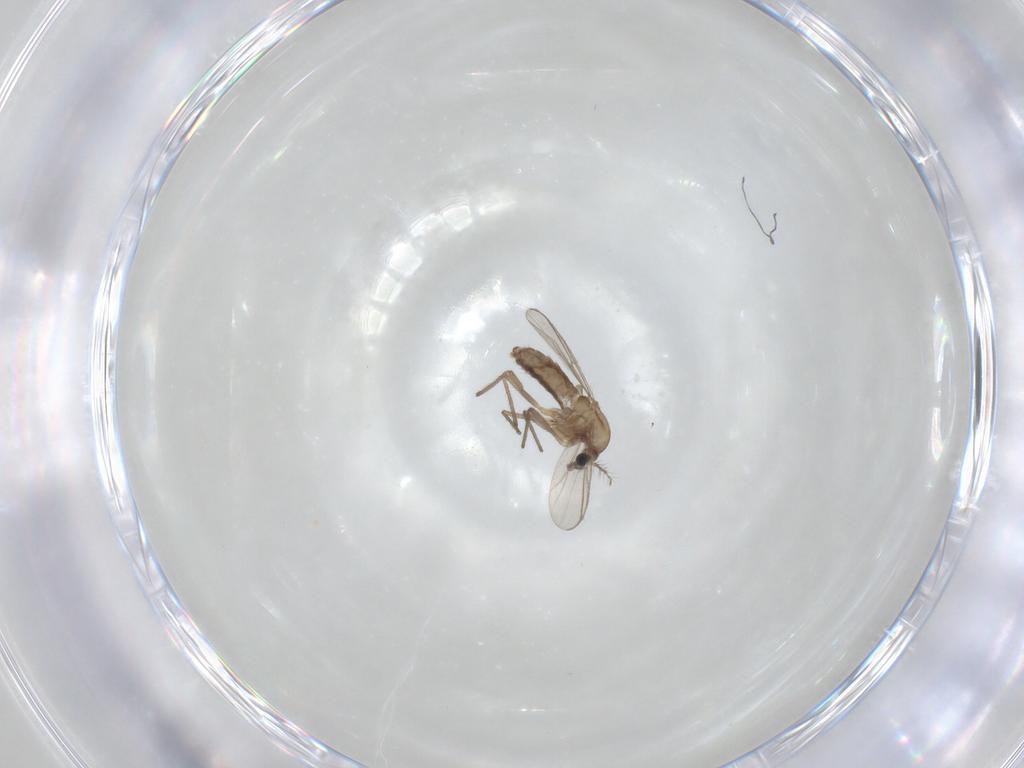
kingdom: Animalia
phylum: Arthropoda
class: Insecta
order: Diptera
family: Chironomidae
